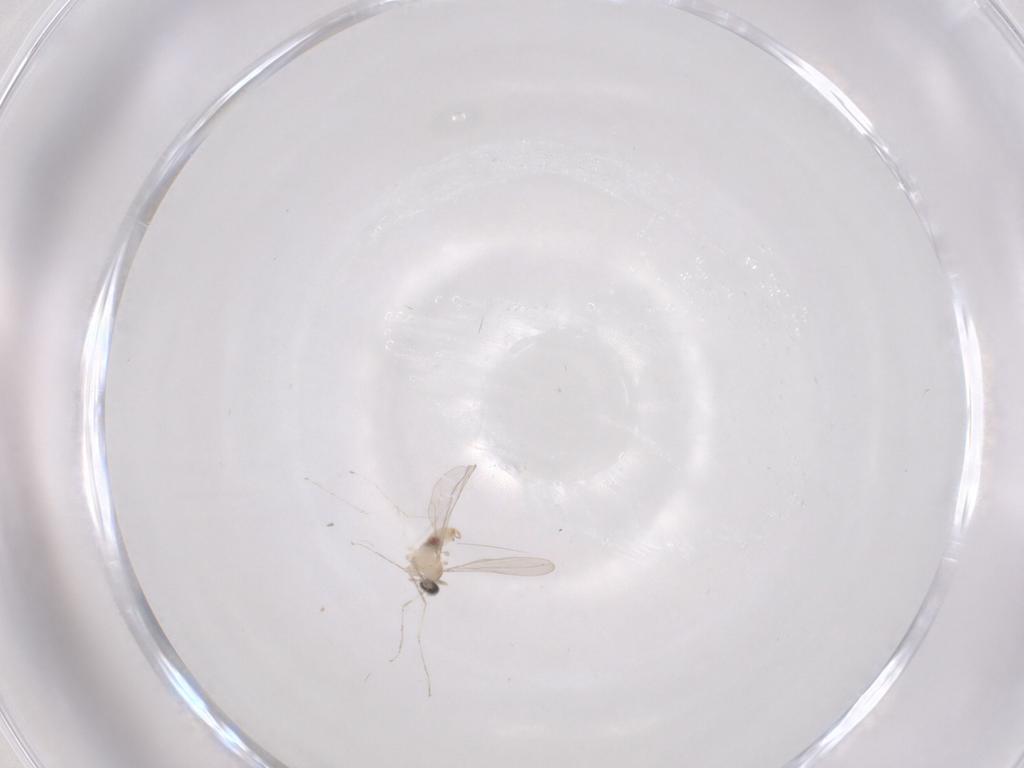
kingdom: Animalia
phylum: Arthropoda
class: Insecta
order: Diptera
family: Cecidomyiidae
